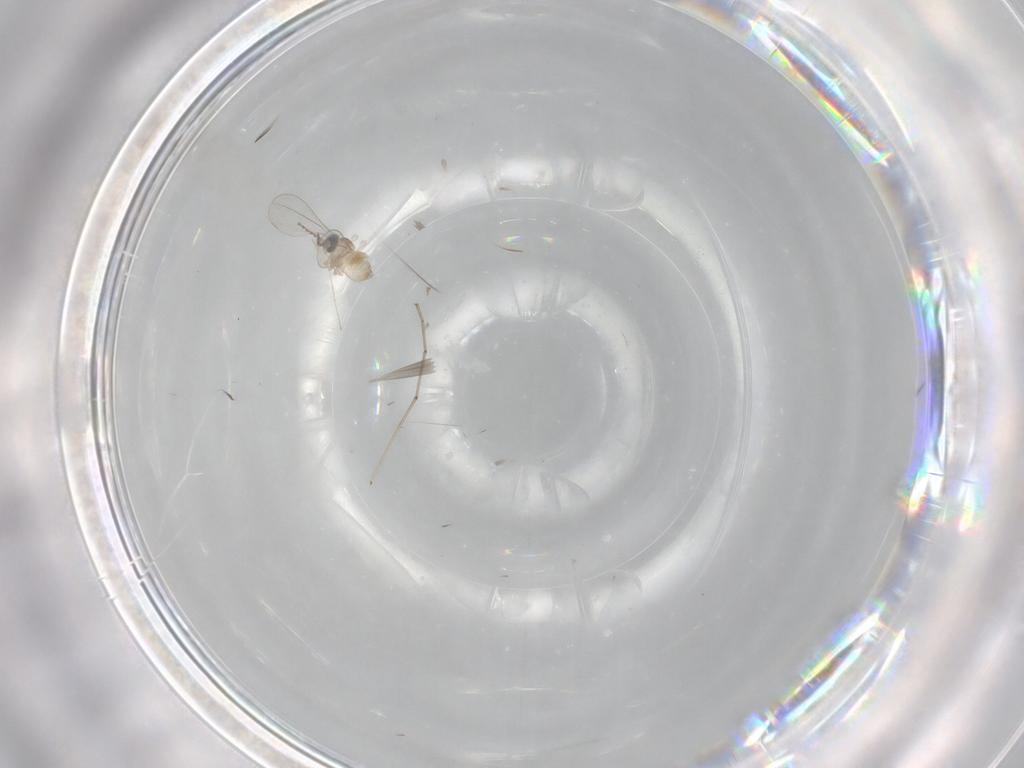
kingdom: Animalia
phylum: Arthropoda
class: Insecta
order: Diptera
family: Cecidomyiidae
